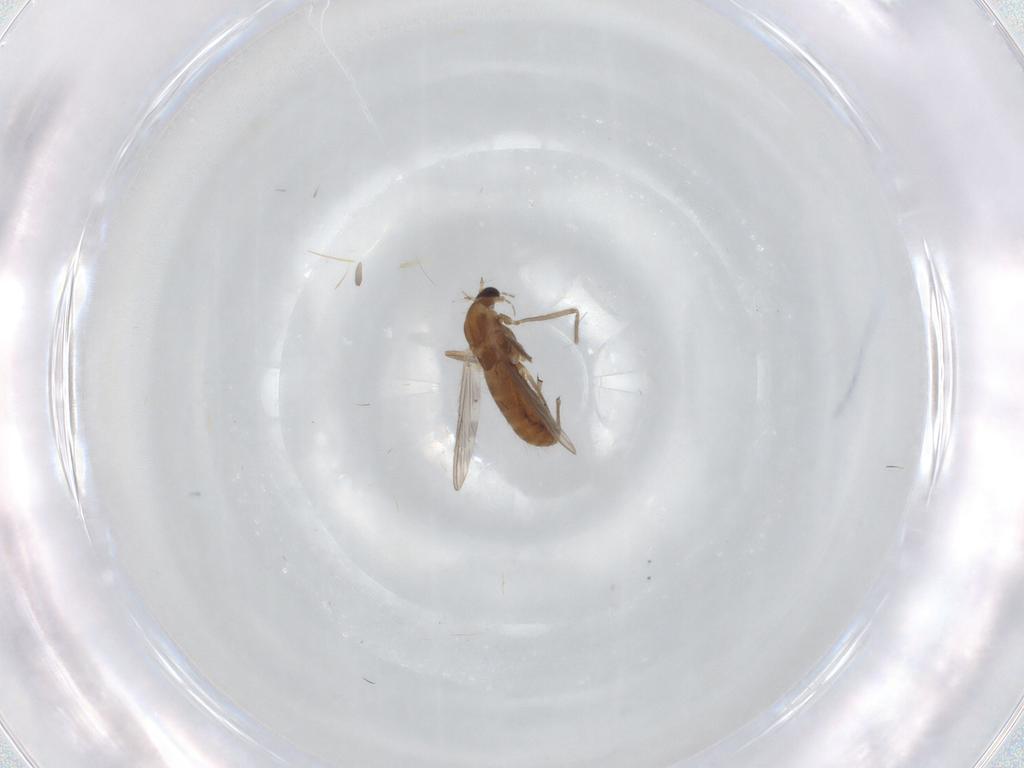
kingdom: Animalia
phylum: Arthropoda
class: Insecta
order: Diptera
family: Chironomidae
